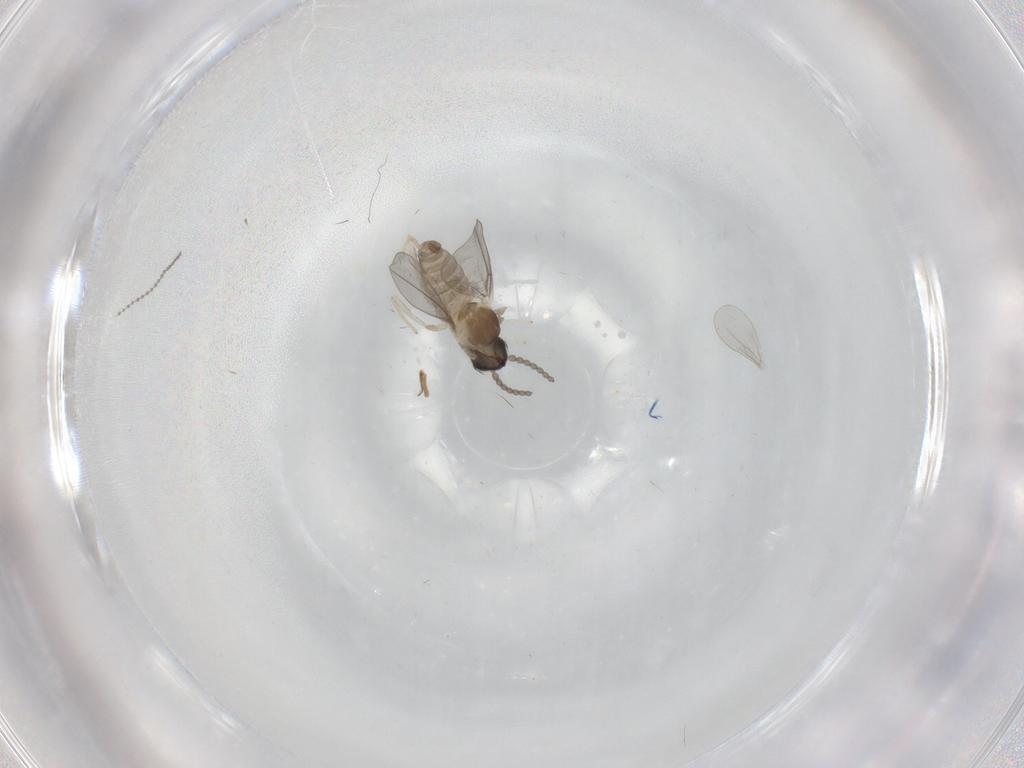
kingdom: Animalia
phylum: Arthropoda
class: Insecta
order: Diptera
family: Cecidomyiidae
